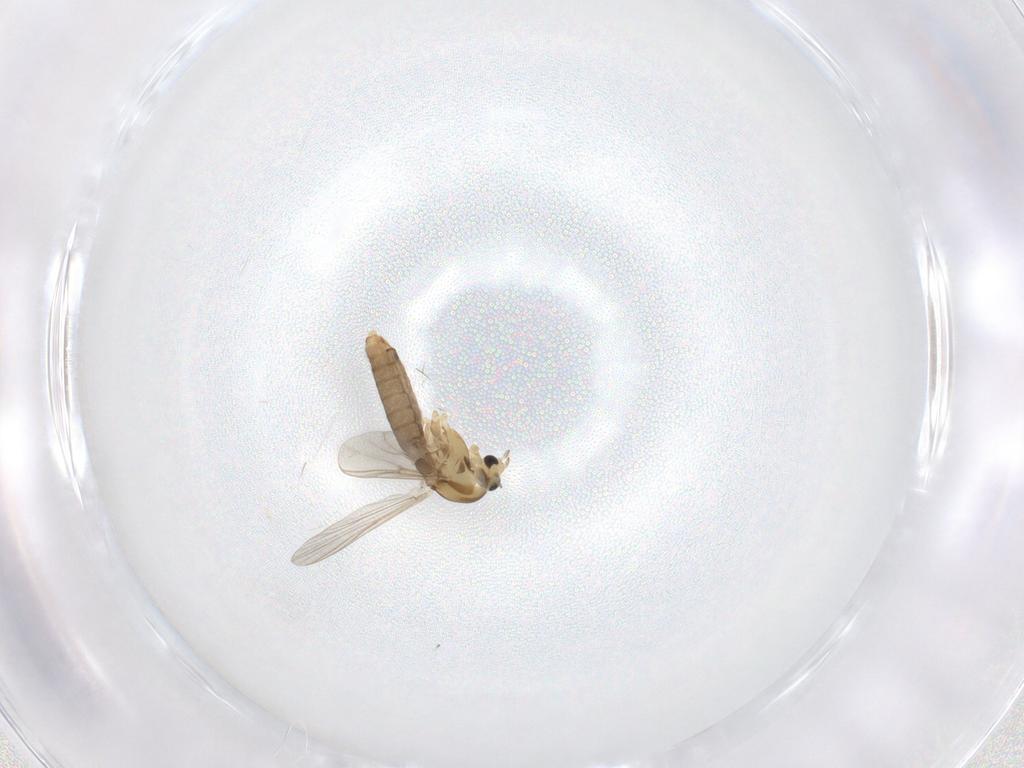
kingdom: Animalia
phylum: Arthropoda
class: Insecta
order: Diptera
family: Chironomidae
